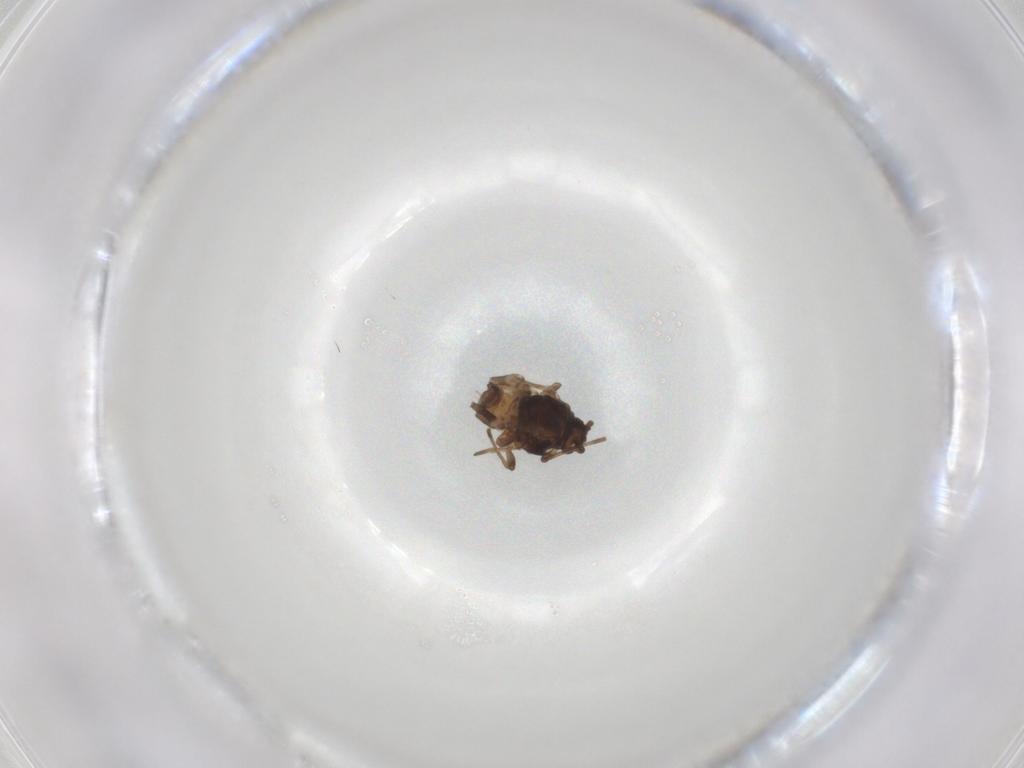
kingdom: Animalia
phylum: Arthropoda
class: Insecta
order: Hemiptera
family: Aphididae
